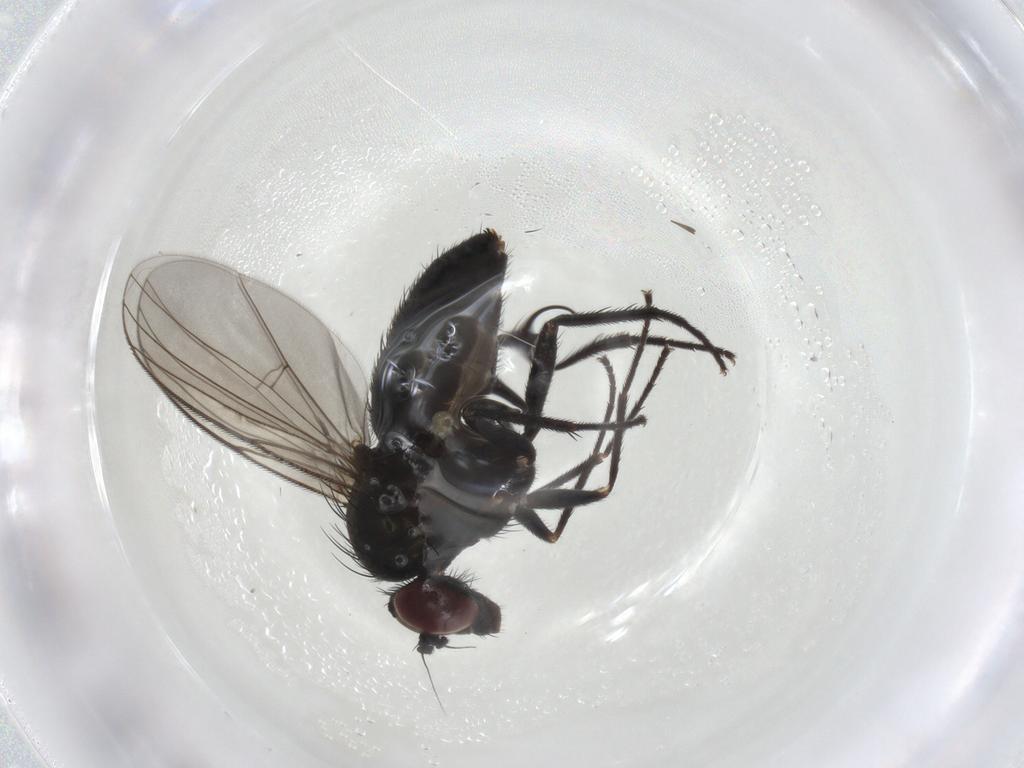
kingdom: Animalia
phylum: Arthropoda
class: Insecta
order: Diptera
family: Dolichopodidae
